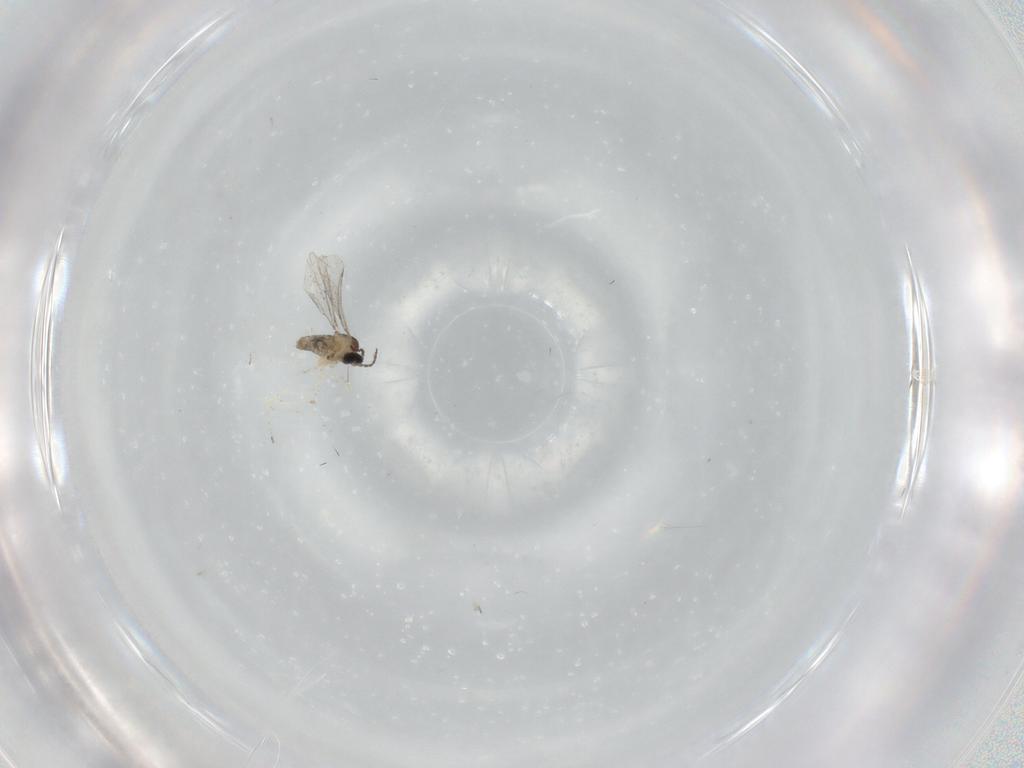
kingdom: Animalia
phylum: Arthropoda
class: Insecta
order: Diptera
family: Cecidomyiidae
